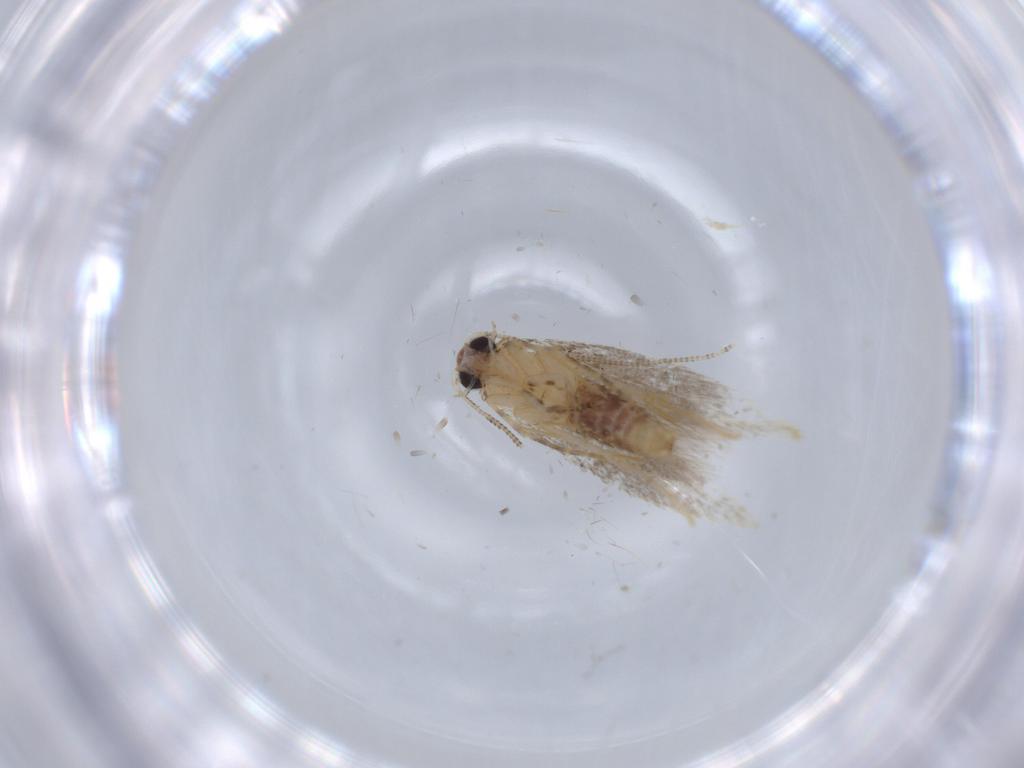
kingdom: Animalia
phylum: Arthropoda
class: Insecta
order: Lepidoptera
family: Tineidae
